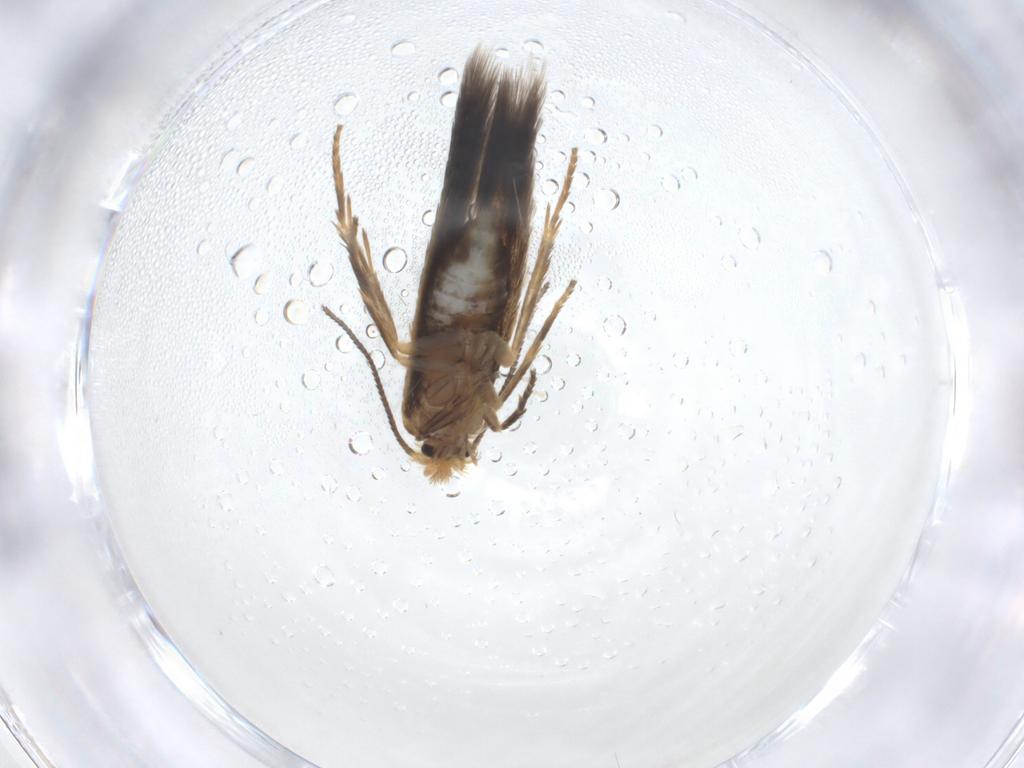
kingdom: Animalia
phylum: Arthropoda
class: Insecta
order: Lepidoptera
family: Nepticulidae
